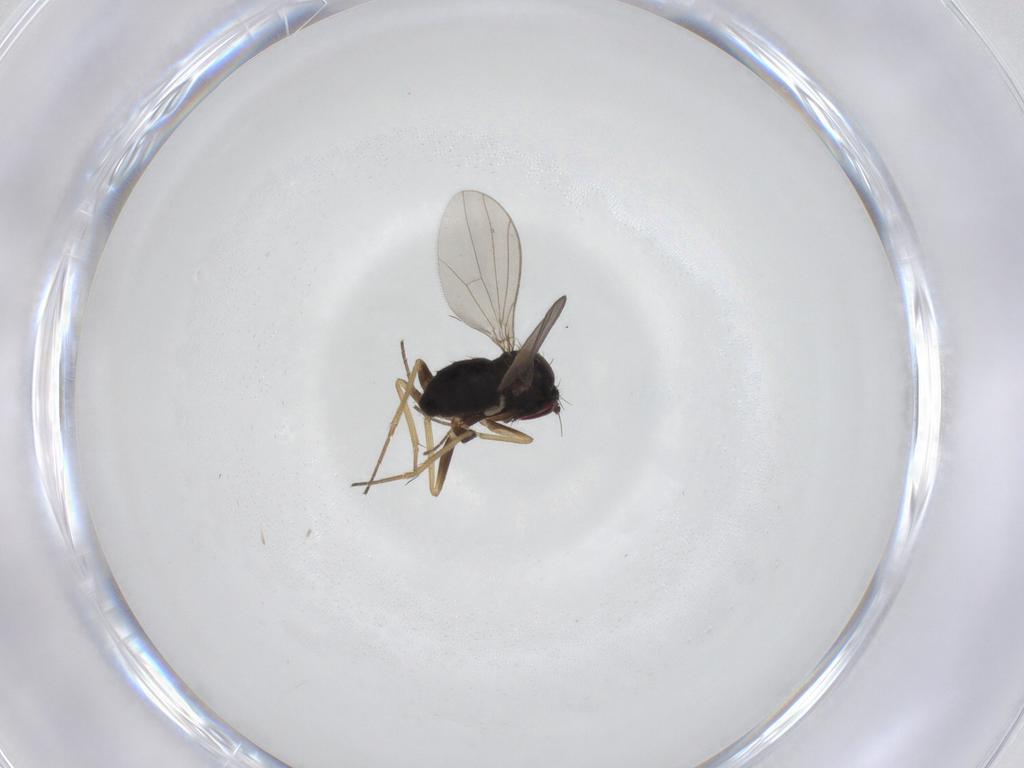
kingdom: Animalia
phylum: Arthropoda
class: Insecta
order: Diptera
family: Dolichopodidae
